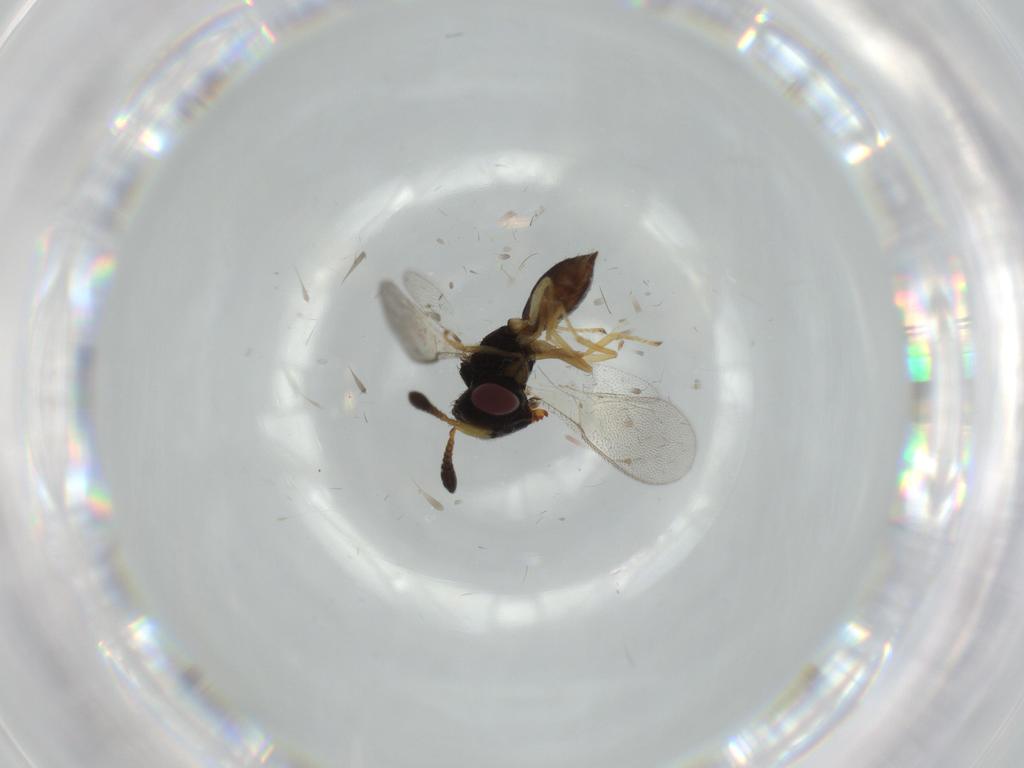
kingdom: Animalia
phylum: Arthropoda
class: Insecta
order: Hymenoptera
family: Pteromalidae
